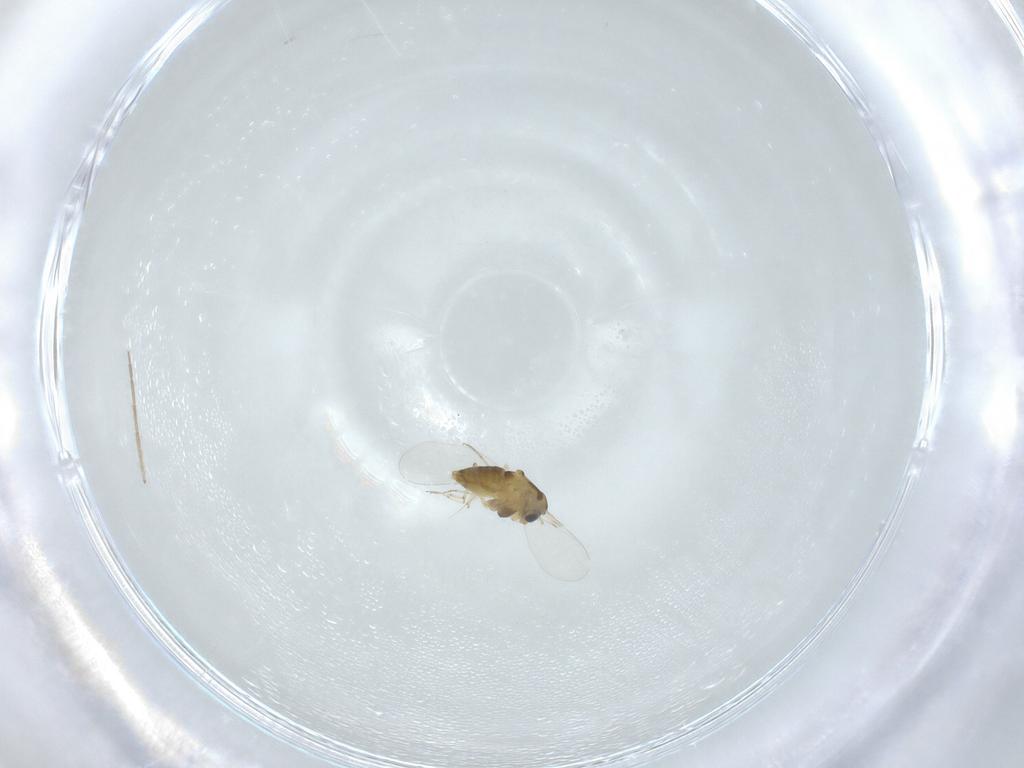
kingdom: Animalia
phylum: Arthropoda
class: Insecta
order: Diptera
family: Chironomidae
